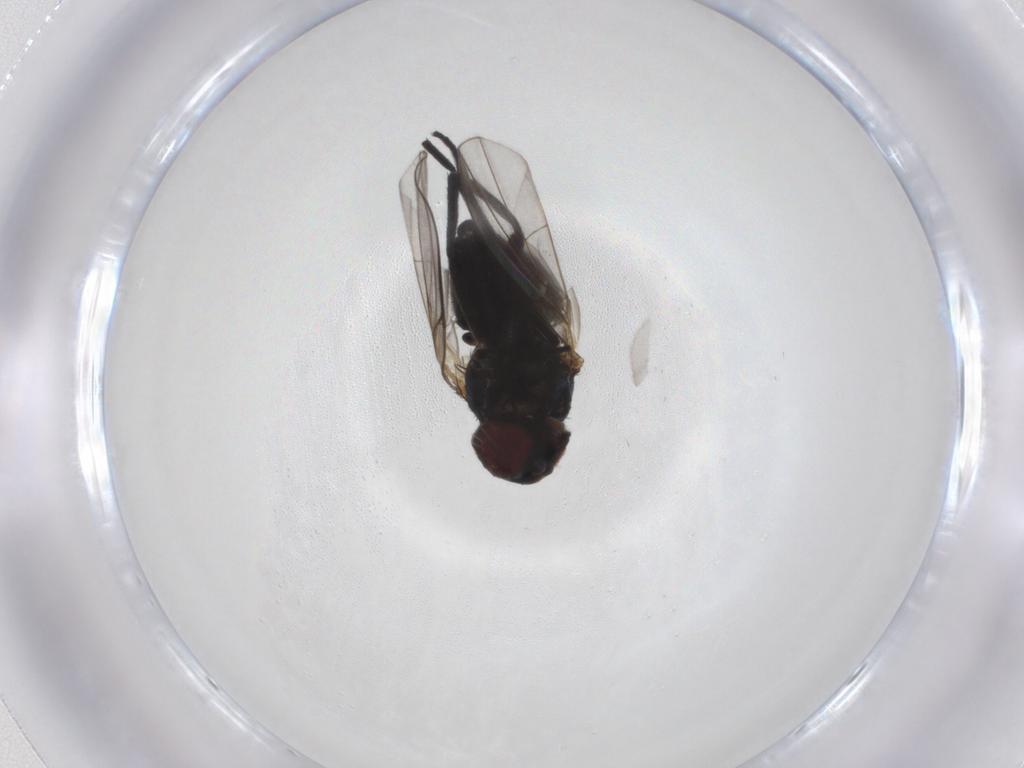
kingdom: Animalia
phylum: Arthropoda
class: Insecta
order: Diptera
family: Agromyzidae
